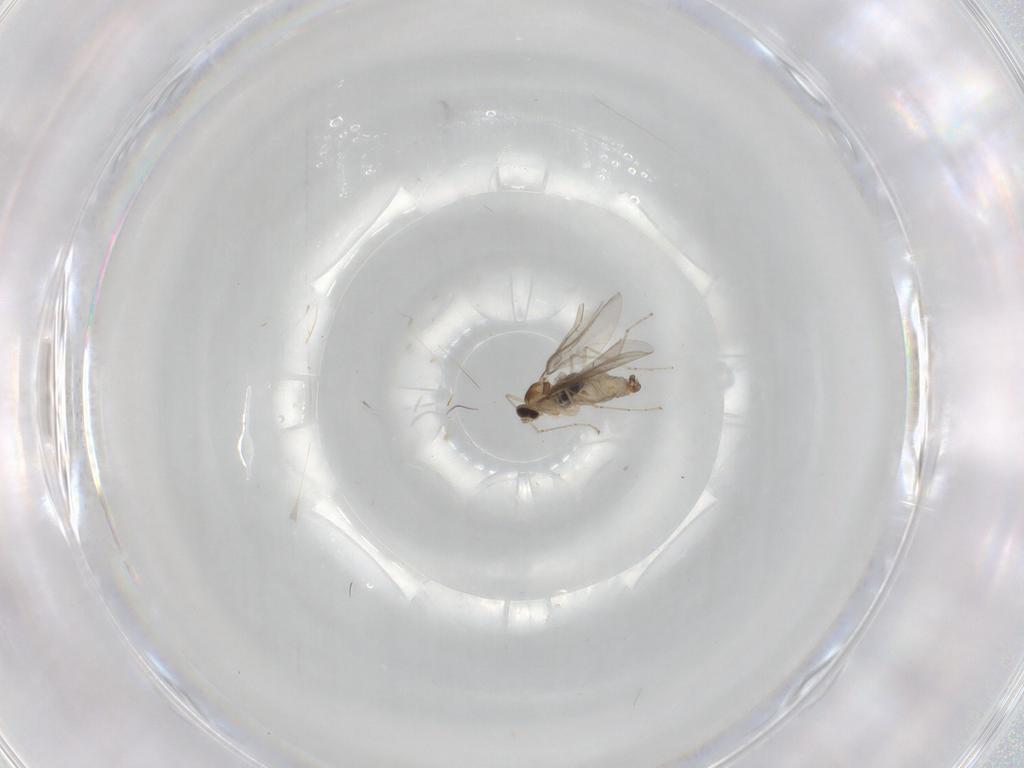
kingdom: Animalia
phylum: Arthropoda
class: Insecta
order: Diptera
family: Cecidomyiidae
